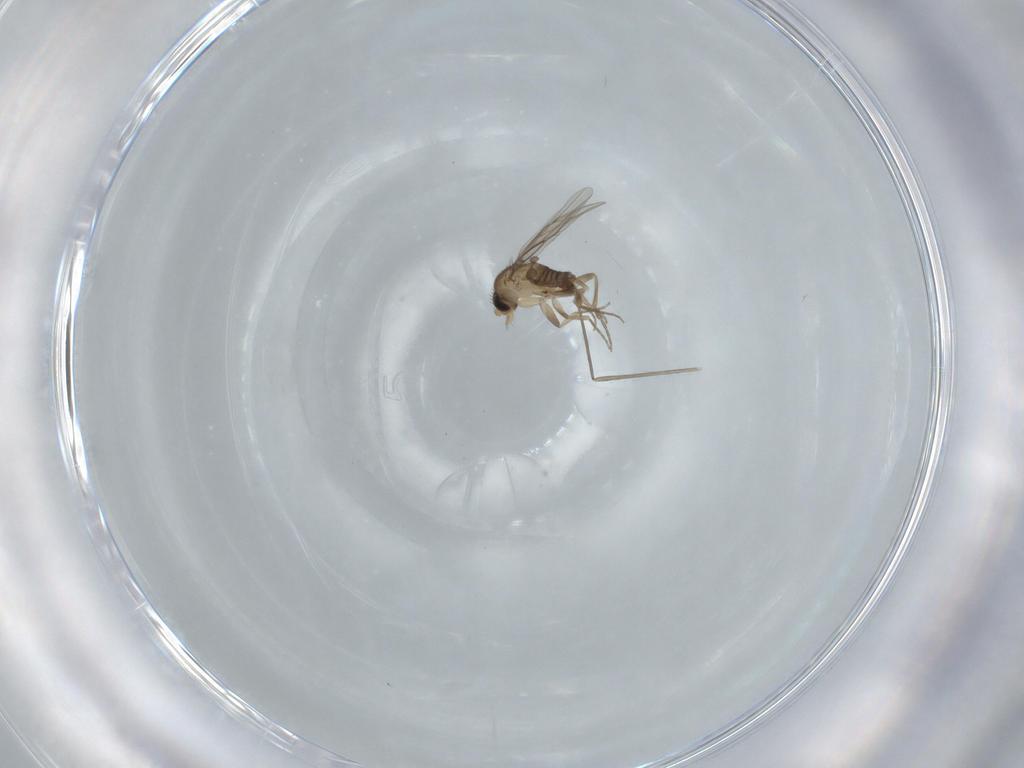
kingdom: Animalia
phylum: Arthropoda
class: Insecta
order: Diptera
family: Phoridae
